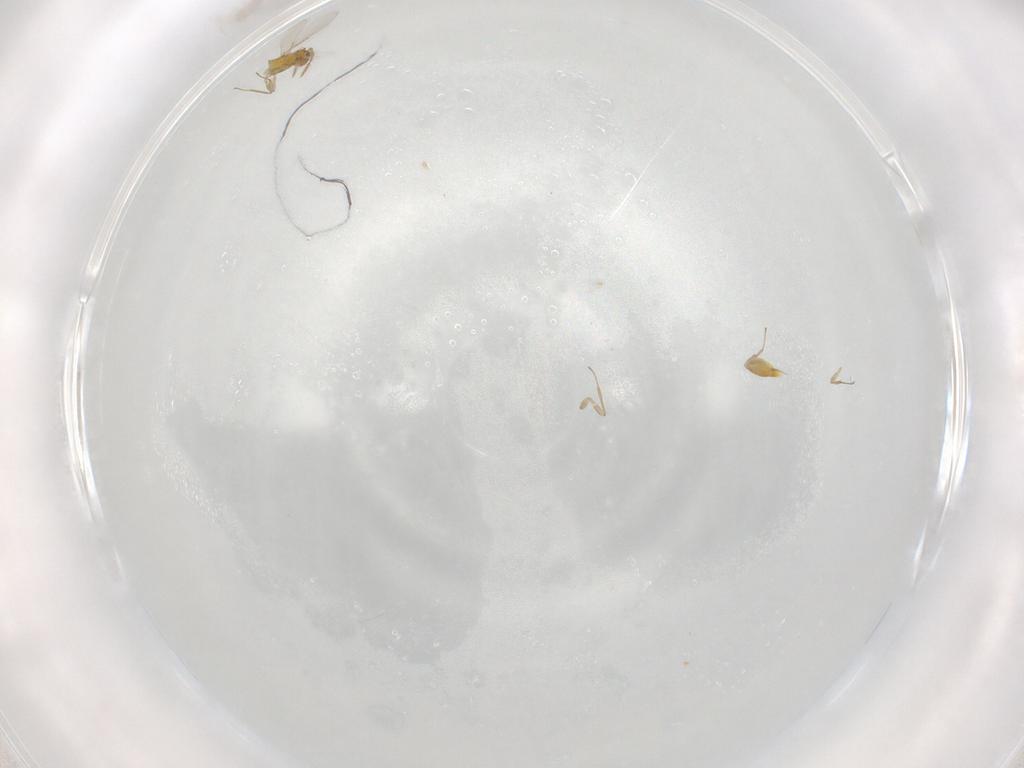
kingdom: Animalia
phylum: Arthropoda
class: Insecta
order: Hymenoptera
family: Aphelinidae
